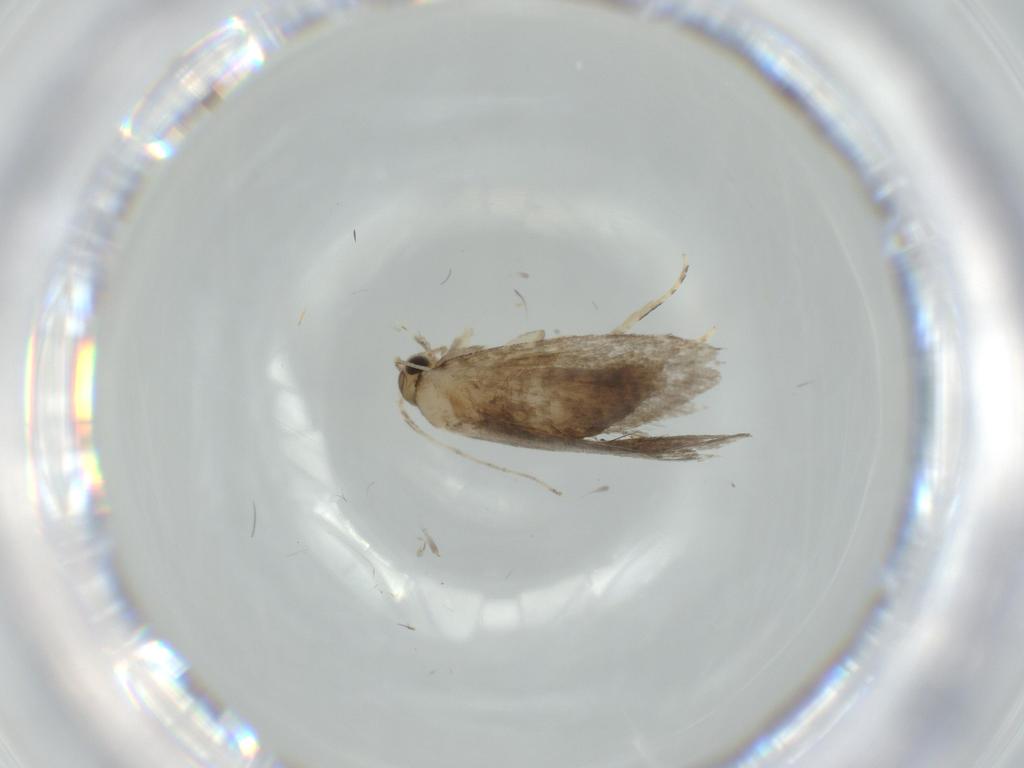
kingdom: Animalia
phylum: Arthropoda
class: Insecta
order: Lepidoptera
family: Tineidae
